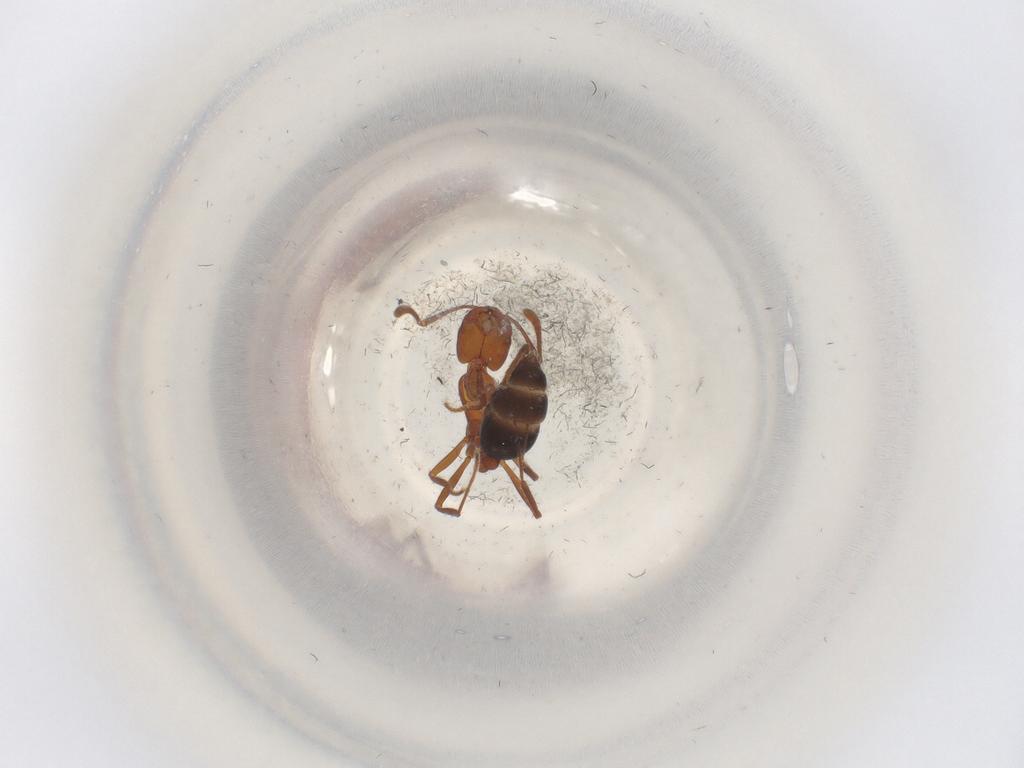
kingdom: Animalia
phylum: Arthropoda
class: Insecta
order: Hymenoptera
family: Formicidae
